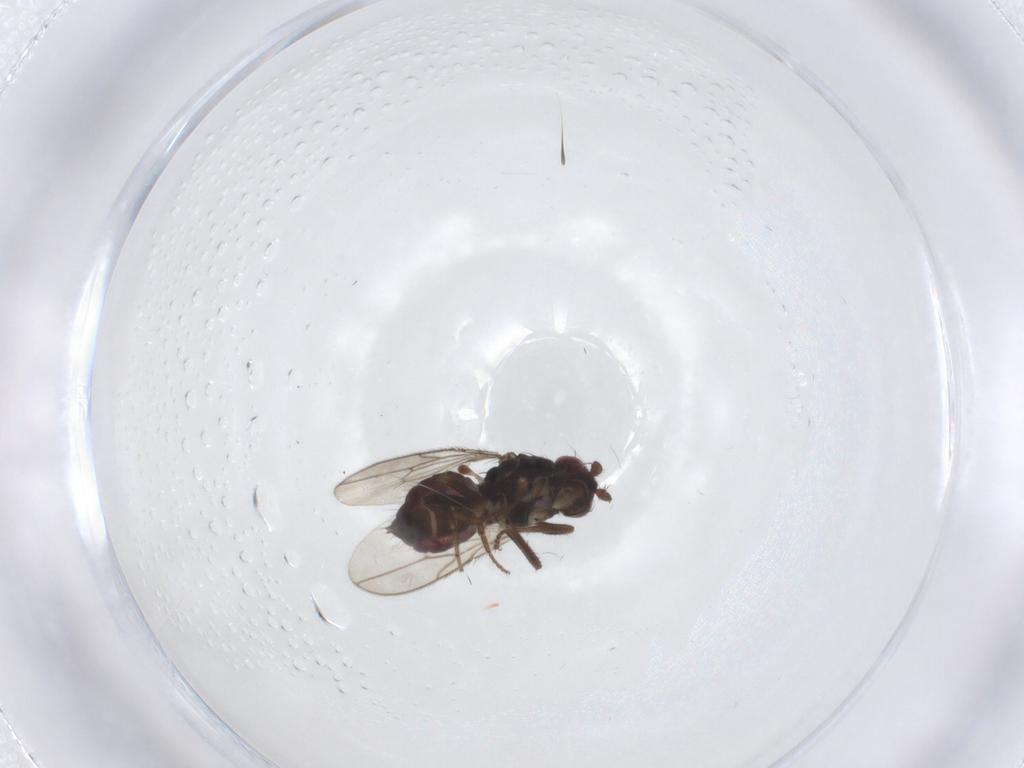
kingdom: Animalia
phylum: Arthropoda
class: Insecta
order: Diptera
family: Sphaeroceridae
